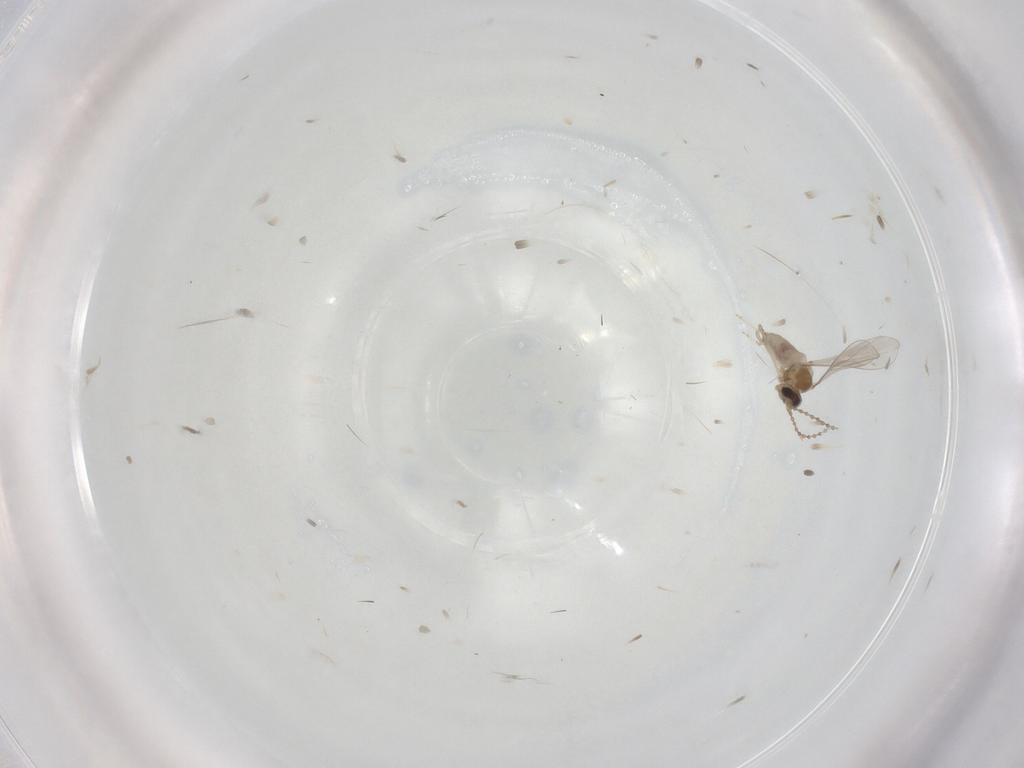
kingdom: Animalia
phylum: Arthropoda
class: Insecta
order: Diptera
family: Cecidomyiidae
